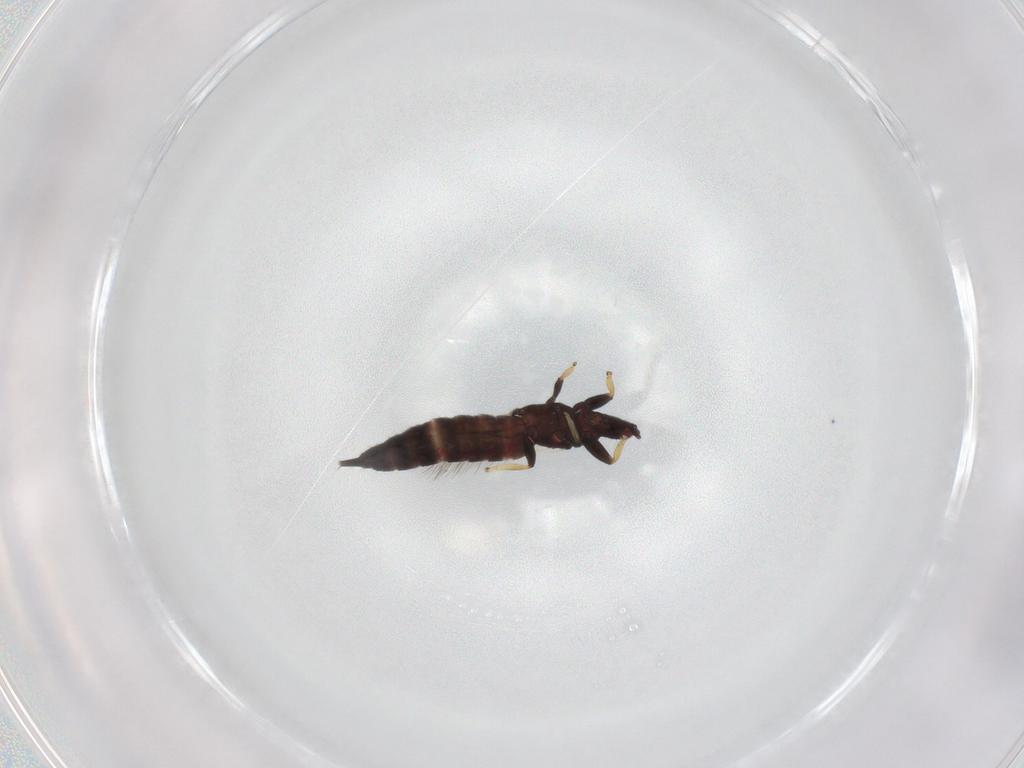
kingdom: Animalia
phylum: Arthropoda
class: Insecta
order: Thysanoptera
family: Phlaeothripidae
